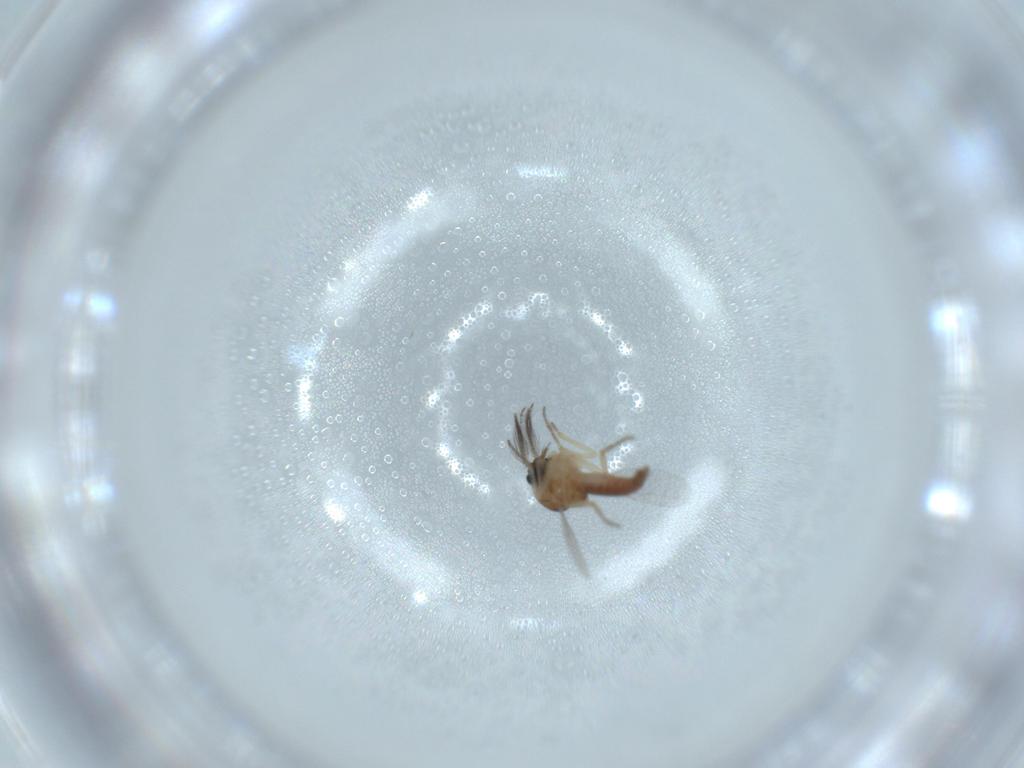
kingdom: Animalia
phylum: Arthropoda
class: Insecta
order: Diptera
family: Ceratopogonidae
